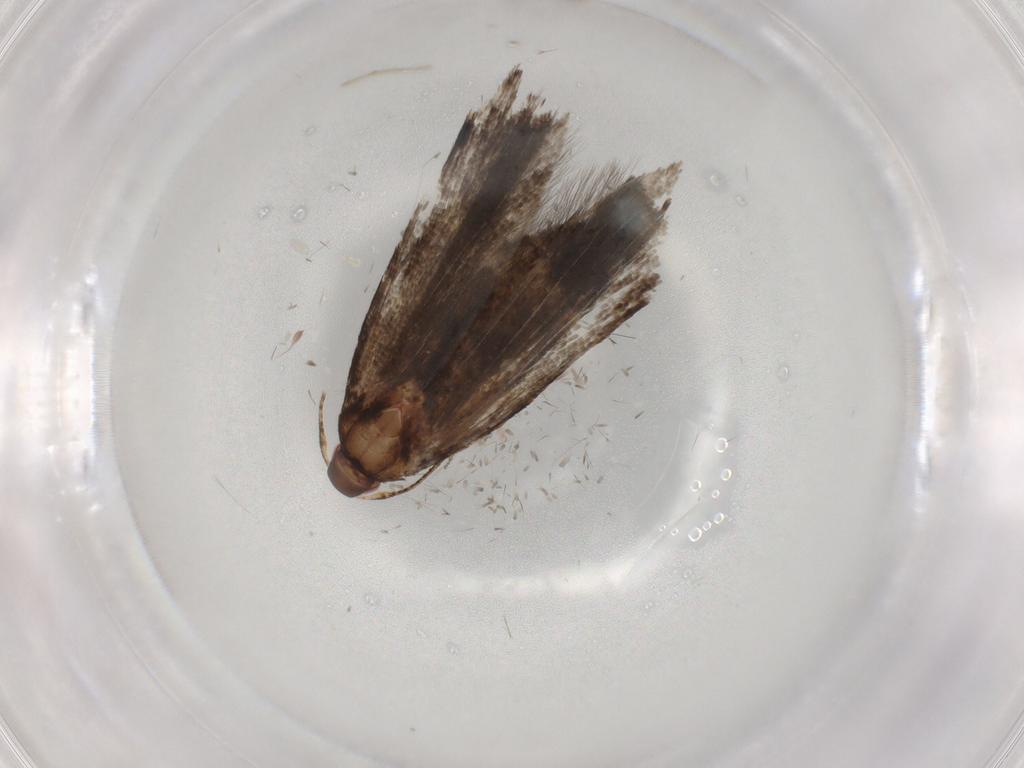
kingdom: Animalia
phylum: Arthropoda
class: Insecta
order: Lepidoptera
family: Gelechiidae
